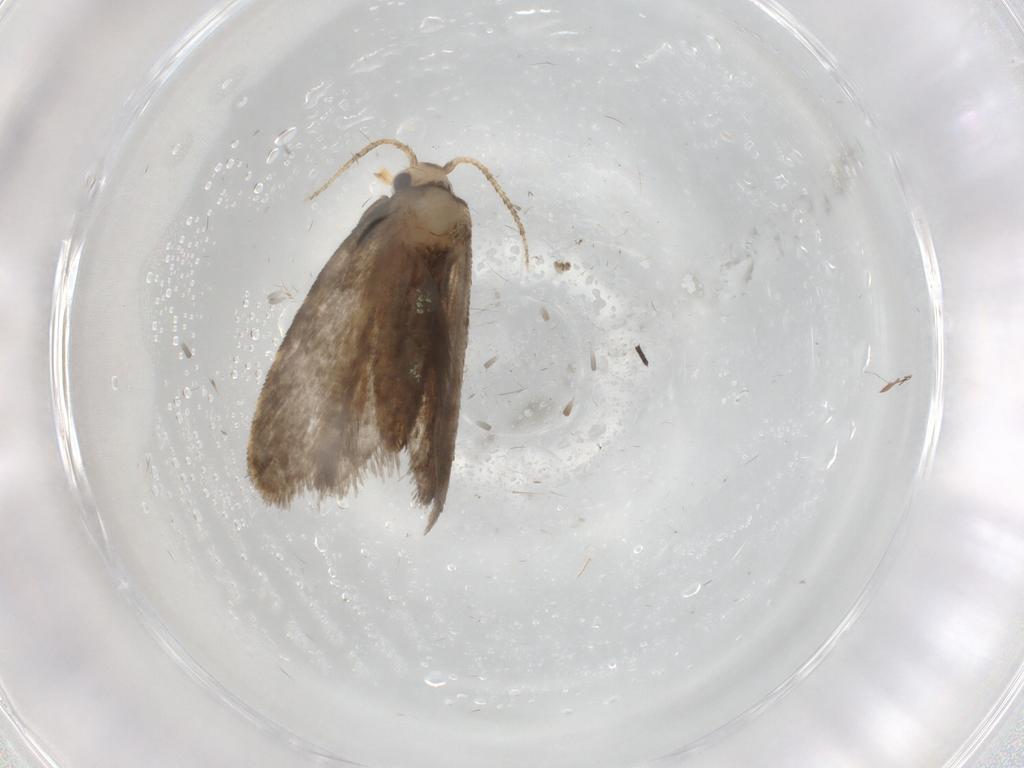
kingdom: Animalia
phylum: Arthropoda
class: Insecta
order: Lepidoptera
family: Psychidae
